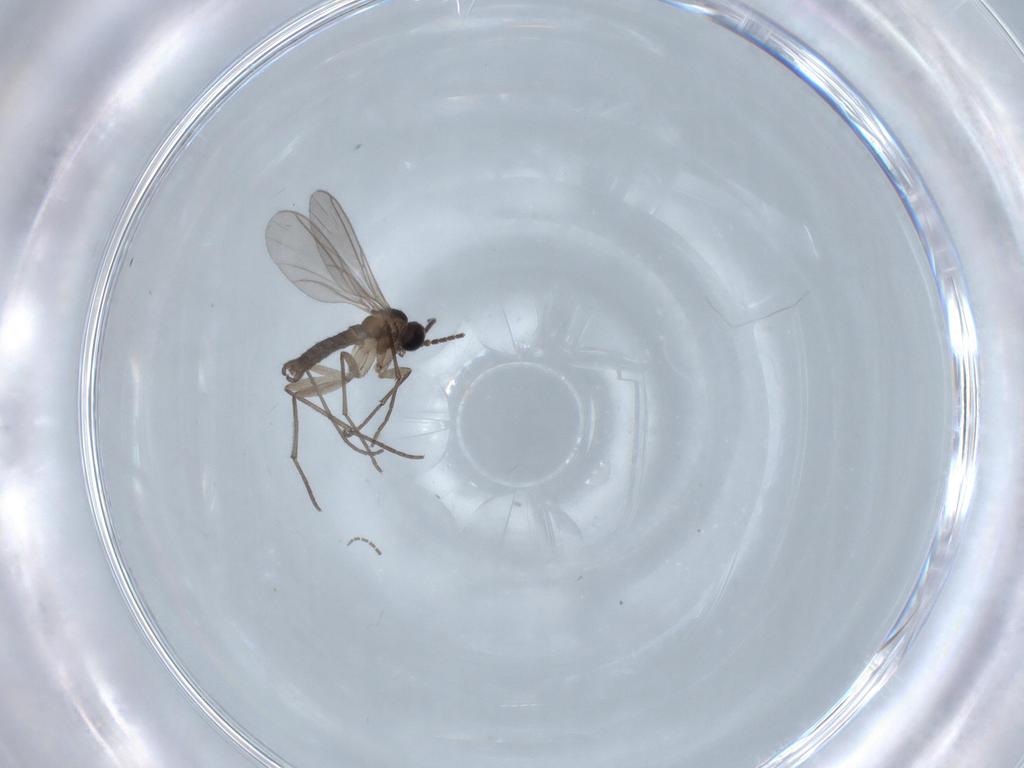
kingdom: Animalia
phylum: Arthropoda
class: Insecta
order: Diptera
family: Sciaridae
